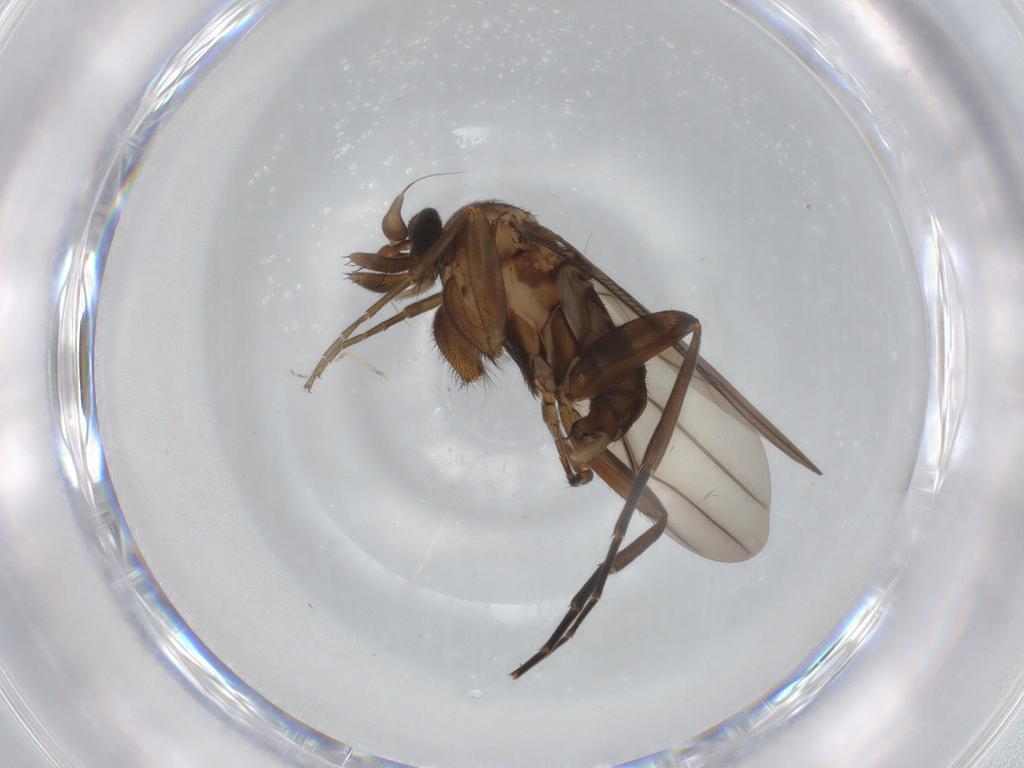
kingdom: Animalia
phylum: Arthropoda
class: Insecta
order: Diptera
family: Phoridae
